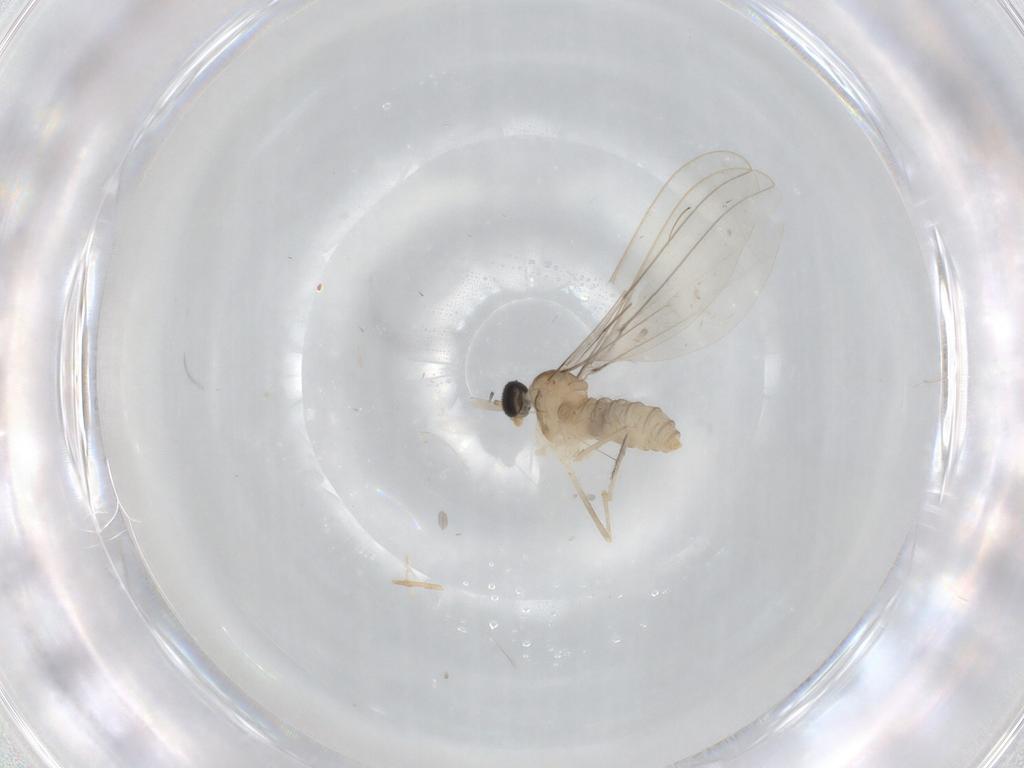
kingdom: Animalia
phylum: Arthropoda
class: Insecta
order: Diptera
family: Cecidomyiidae
